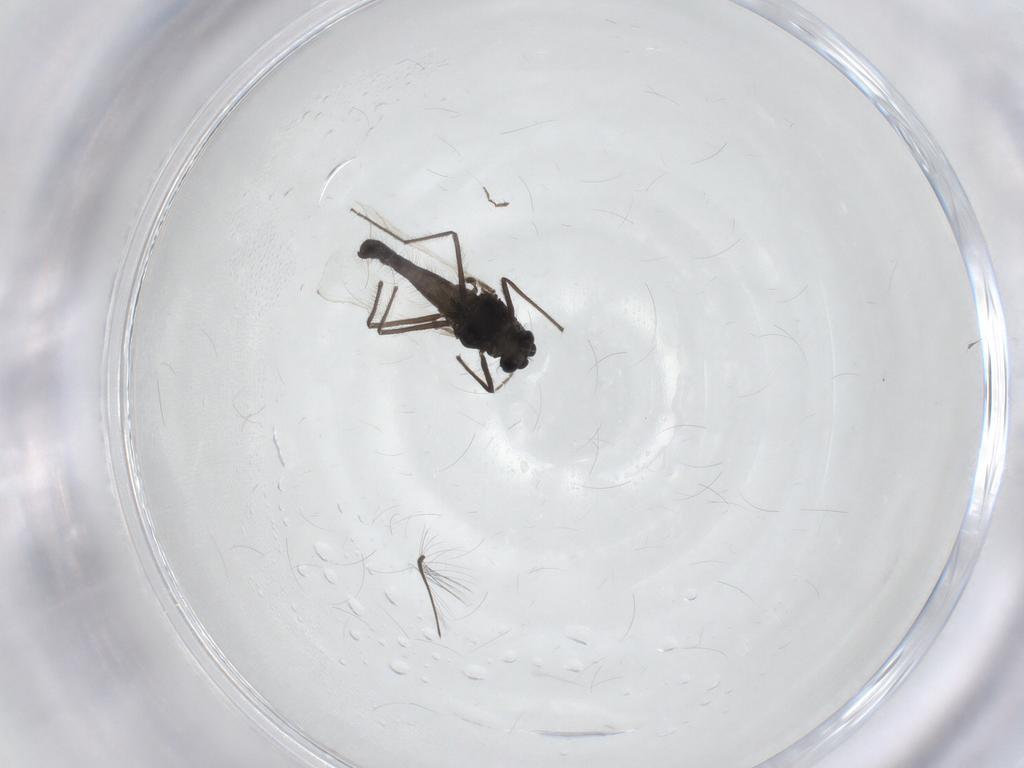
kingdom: Animalia
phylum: Arthropoda
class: Insecta
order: Diptera
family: Chironomidae
